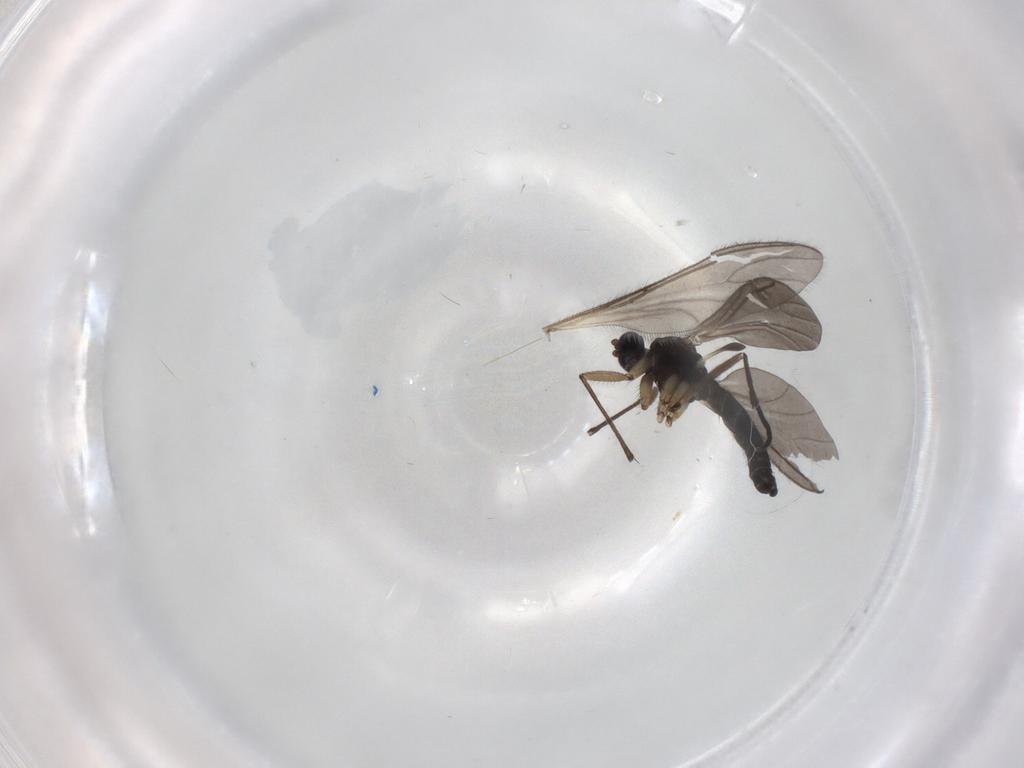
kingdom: Animalia
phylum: Arthropoda
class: Insecta
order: Diptera
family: Sciaridae
